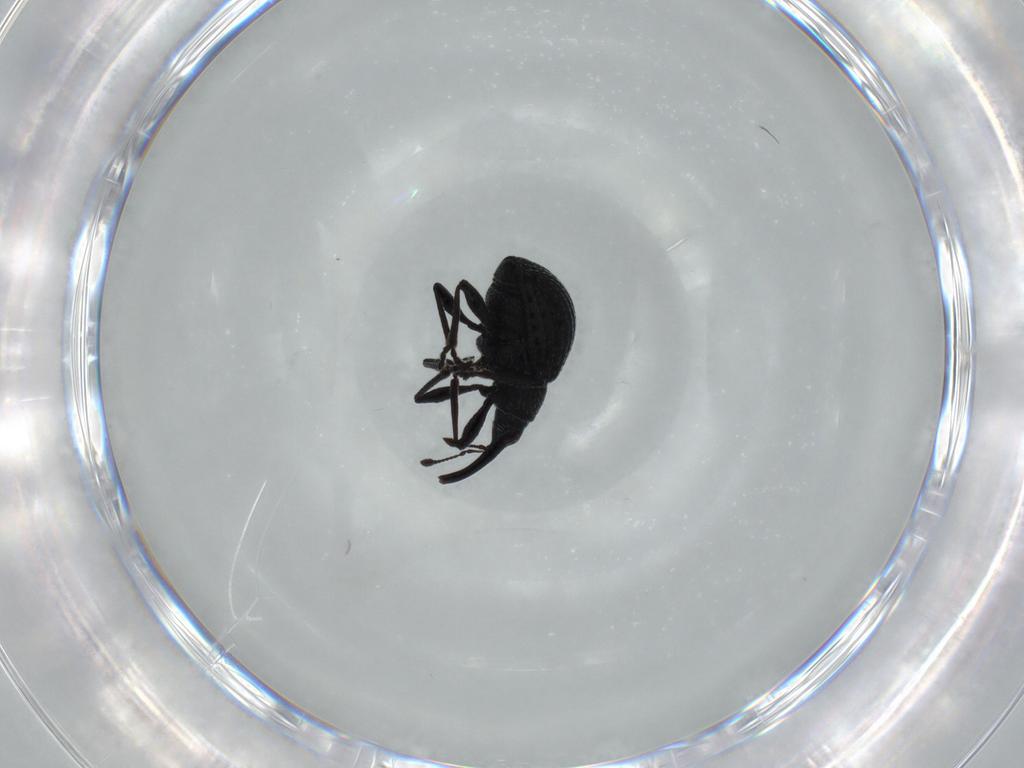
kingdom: Animalia
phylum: Arthropoda
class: Insecta
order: Coleoptera
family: Brentidae
